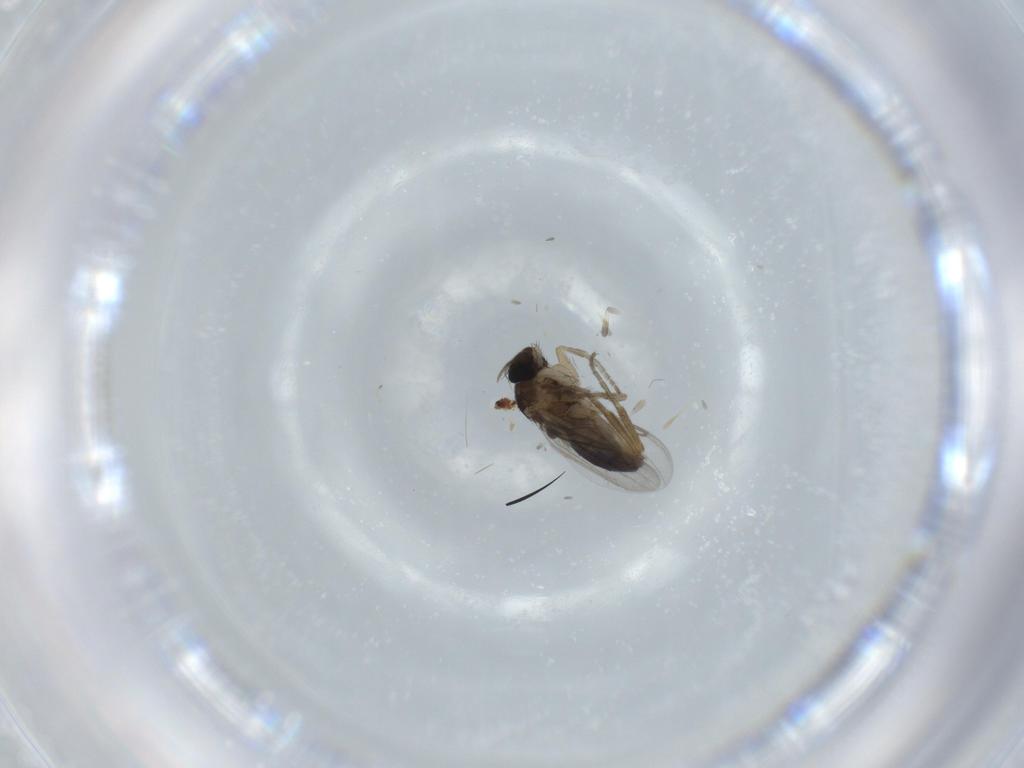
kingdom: Animalia
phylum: Arthropoda
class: Insecta
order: Diptera
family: Phoridae
